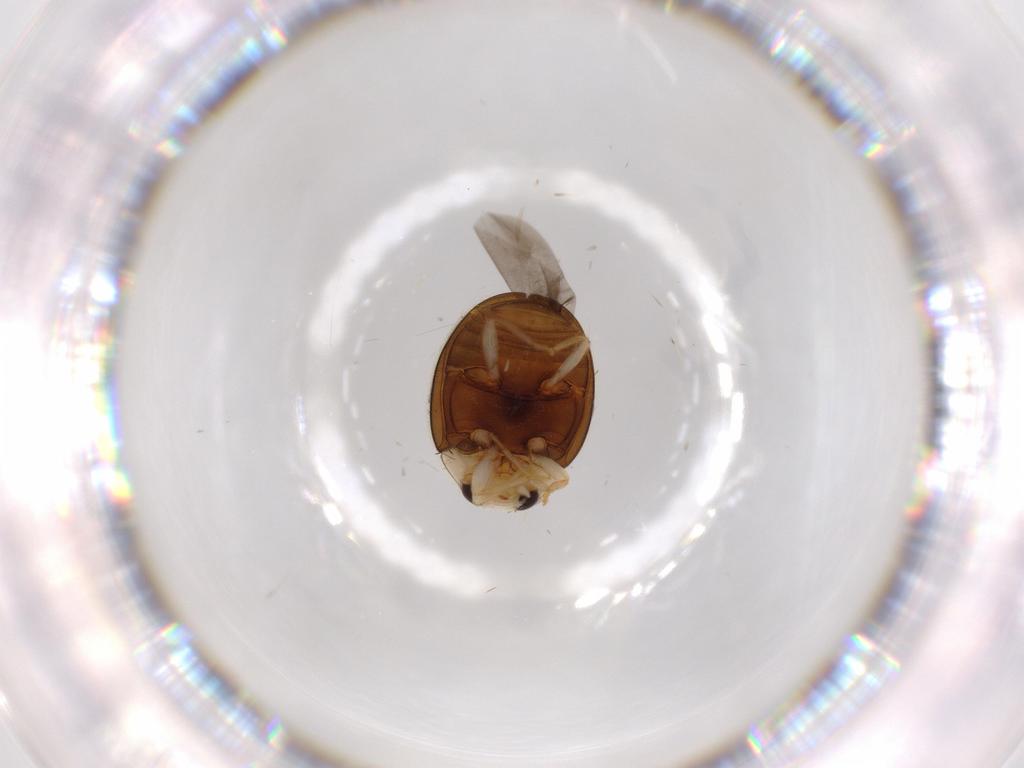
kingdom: Animalia
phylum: Arthropoda
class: Insecta
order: Coleoptera
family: Coccinellidae
